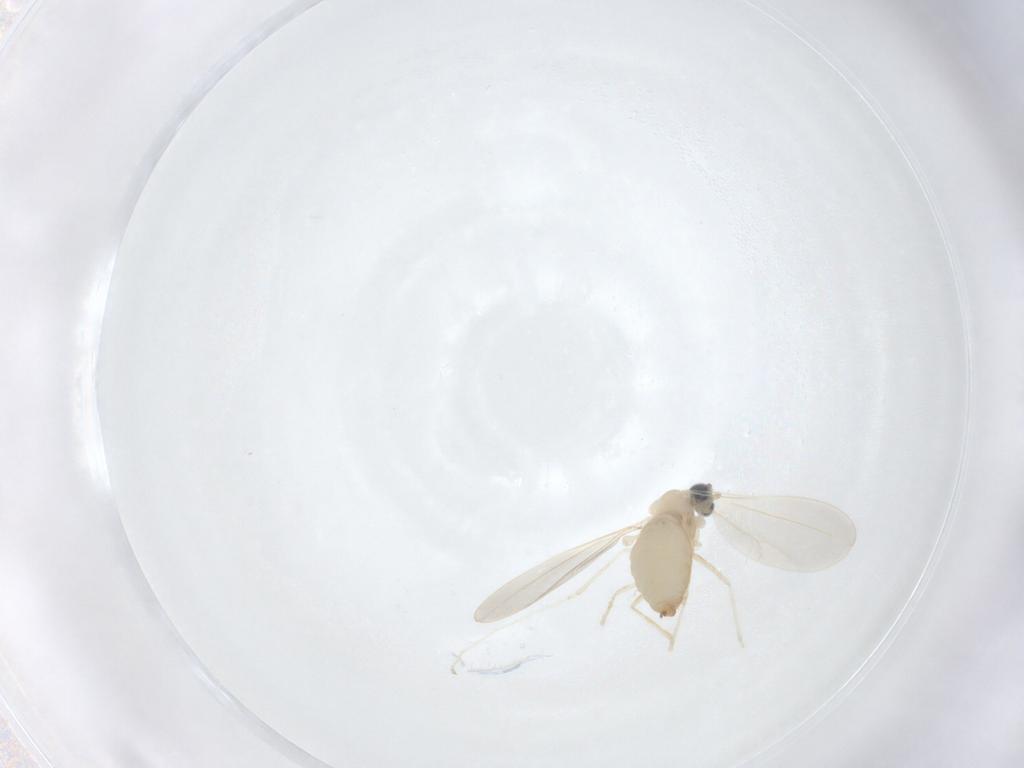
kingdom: Animalia
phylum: Arthropoda
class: Insecta
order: Diptera
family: Cecidomyiidae
